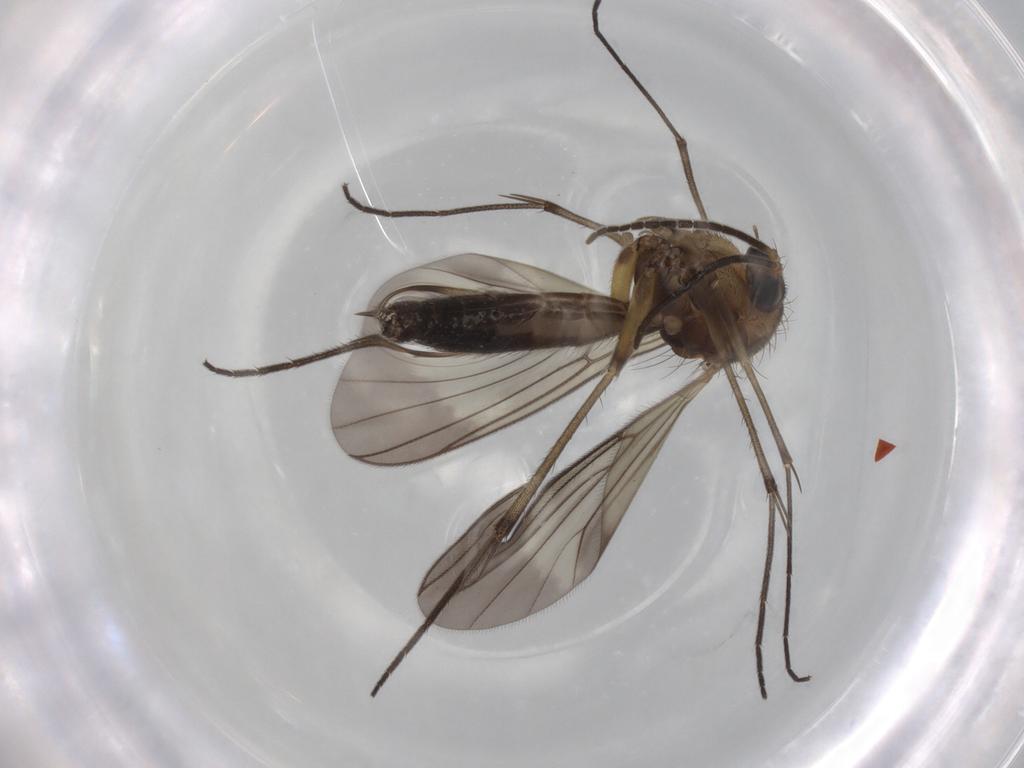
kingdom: Animalia
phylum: Arthropoda
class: Insecta
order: Diptera
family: Mycetophilidae
